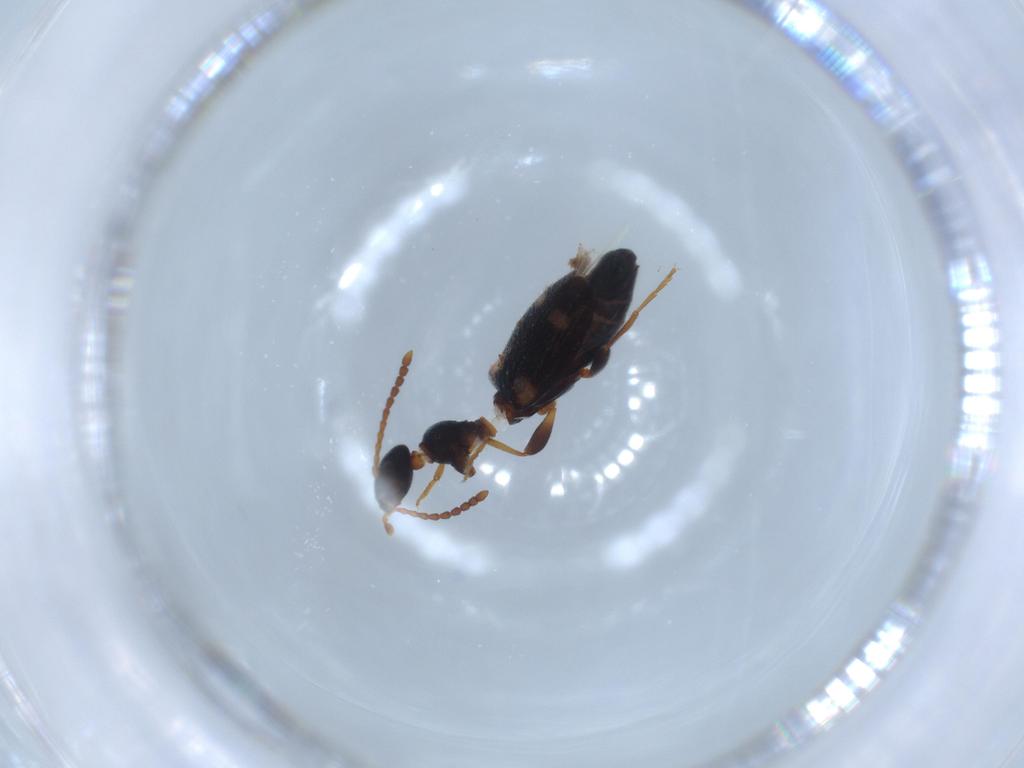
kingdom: Animalia
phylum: Arthropoda
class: Insecta
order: Coleoptera
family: Anthicidae
